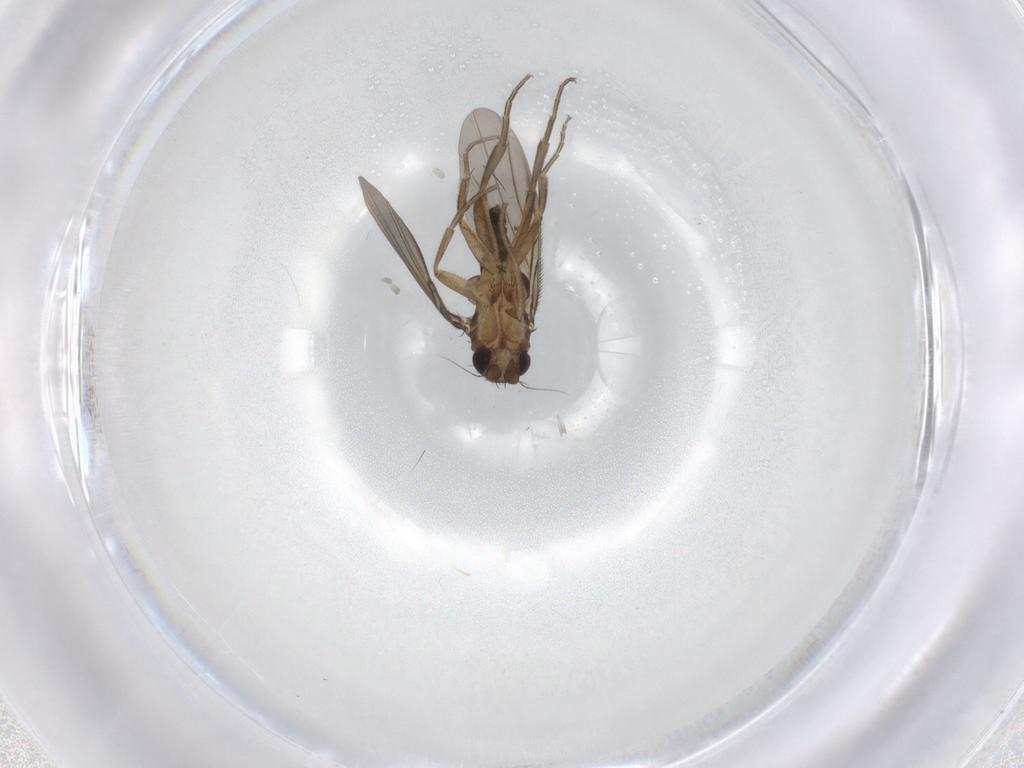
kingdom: Animalia
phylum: Arthropoda
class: Insecta
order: Diptera
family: Phoridae
